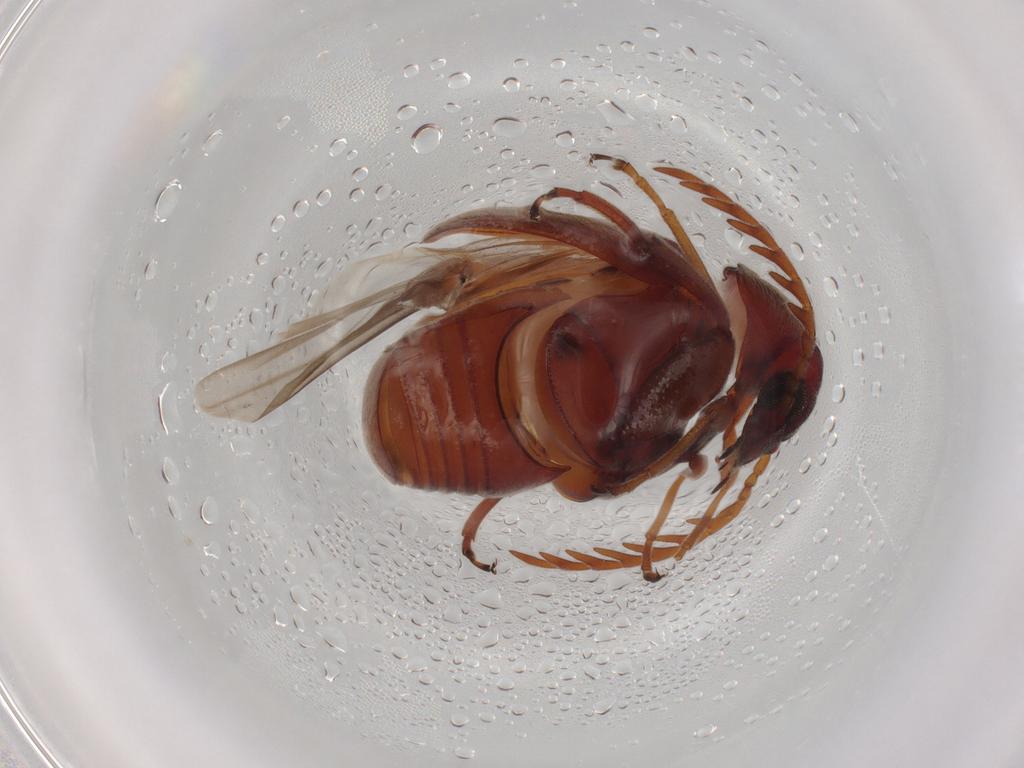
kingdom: Animalia
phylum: Arthropoda
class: Insecta
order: Coleoptera
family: Chrysomelidae
